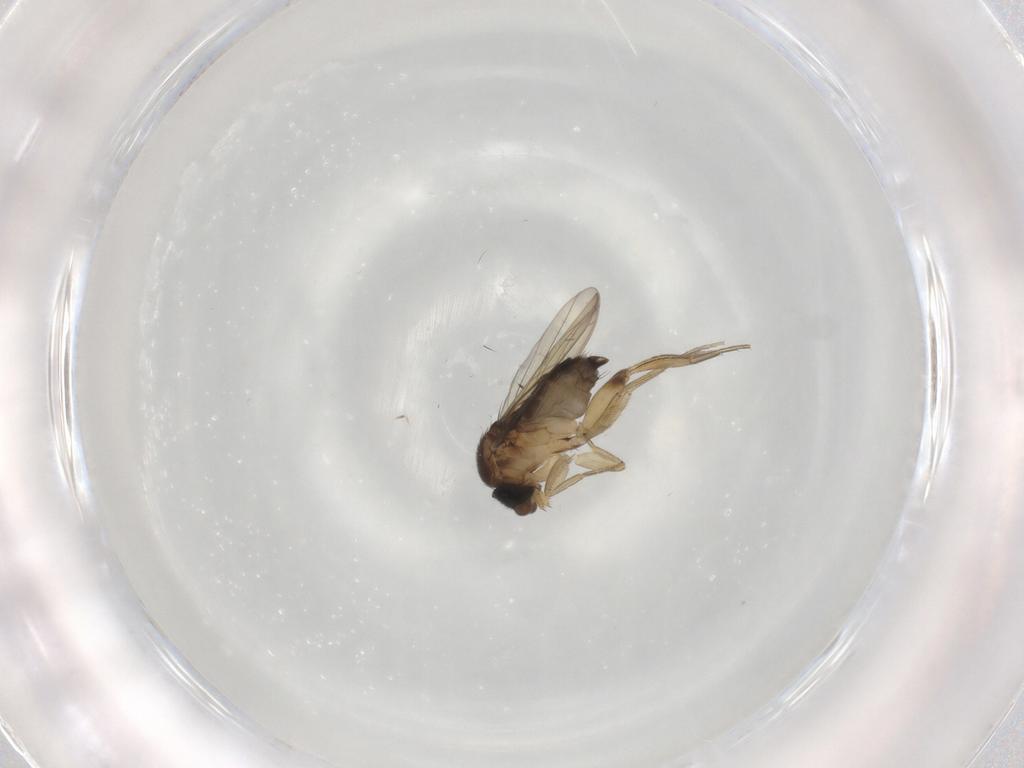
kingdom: Animalia
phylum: Arthropoda
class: Insecta
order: Diptera
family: Phoridae
